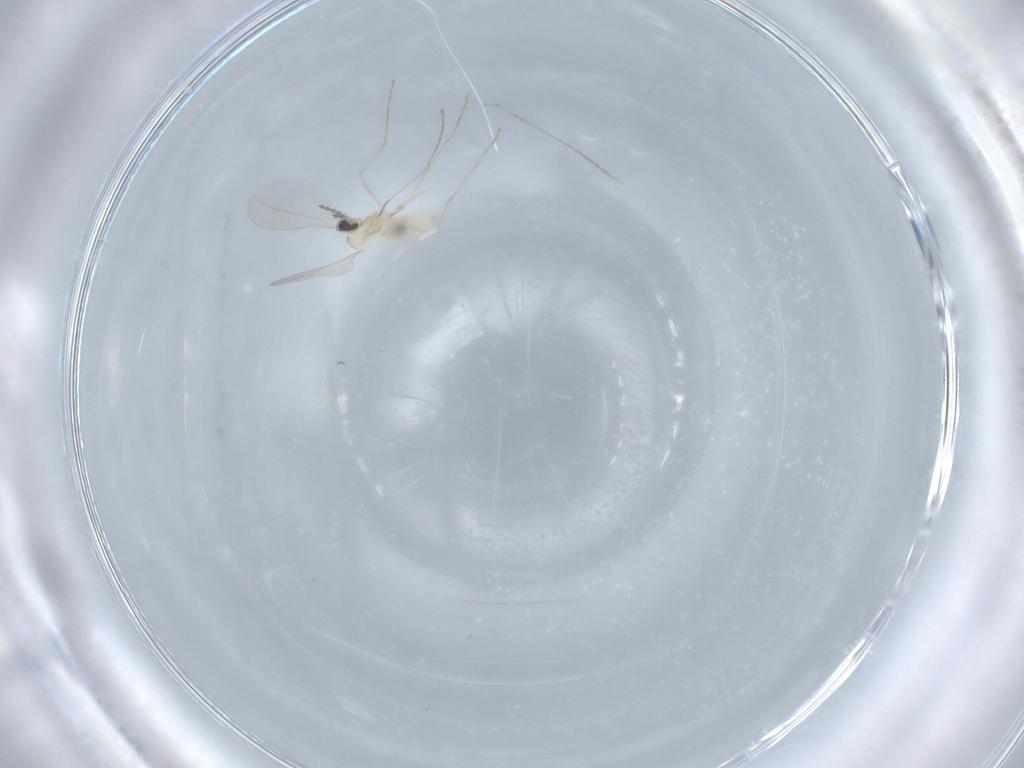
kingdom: Animalia
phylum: Arthropoda
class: Insecta
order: Diptera
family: Cecidomyiidae
